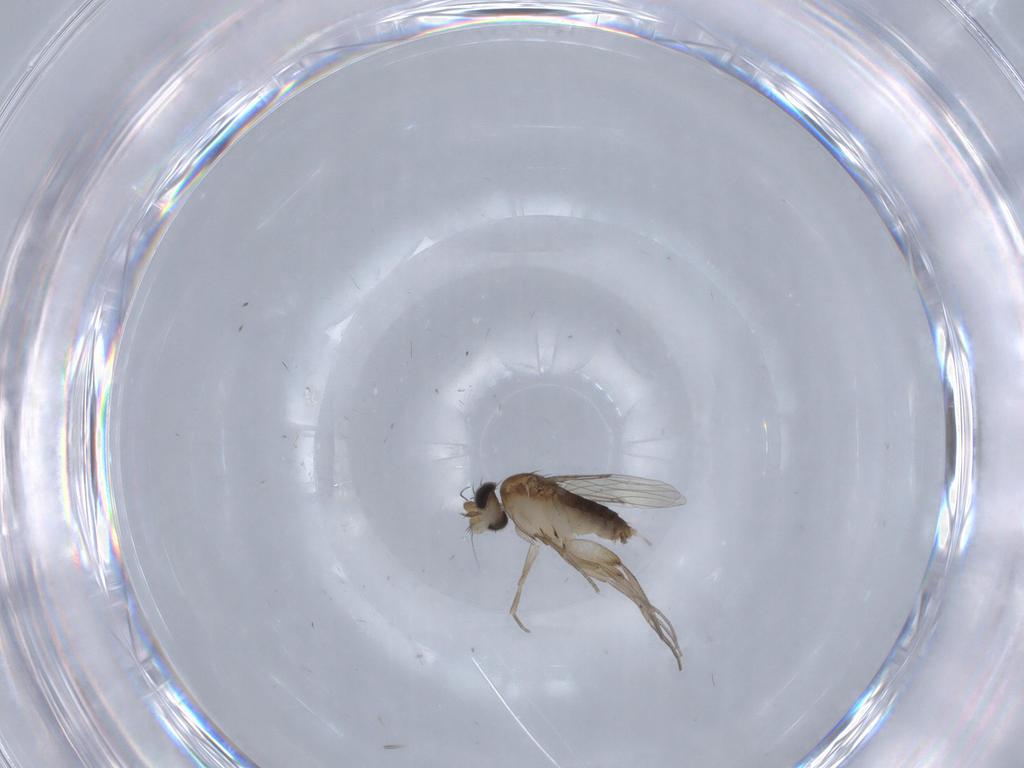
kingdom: Animalia
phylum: Arthropoda
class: Insecta
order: Diptera
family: Phoridae
